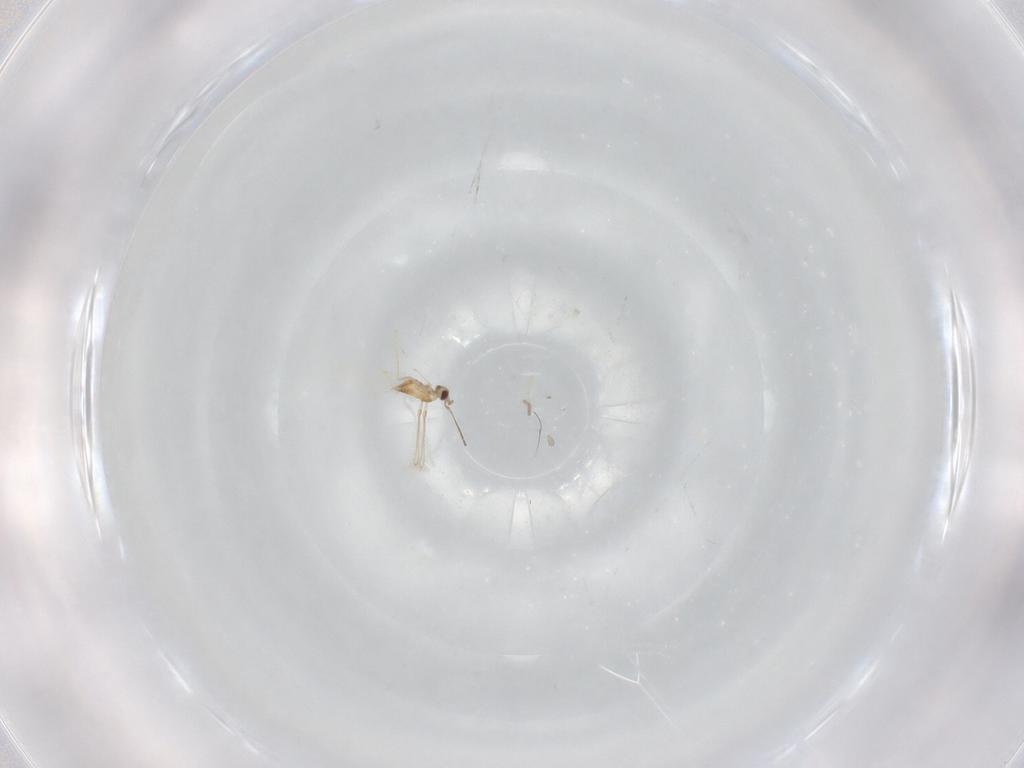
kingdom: Animalia
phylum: Arthropoda
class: Insecta
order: Hymenoptera
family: Mymaridae
